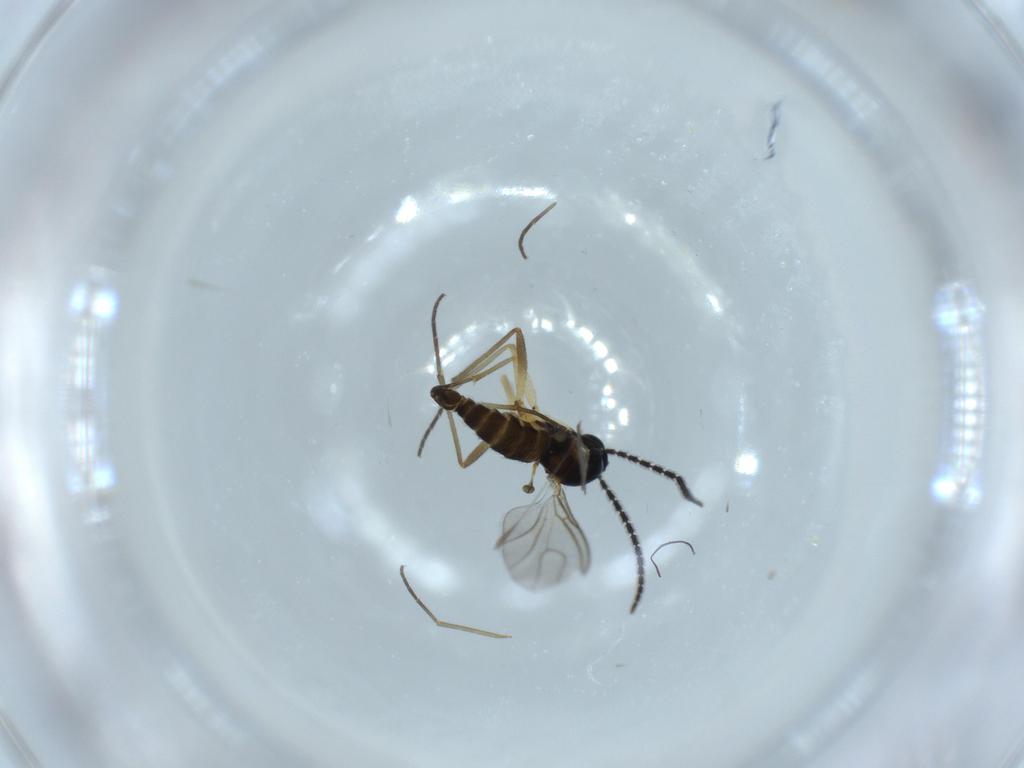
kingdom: Animalia
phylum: Arthropoda
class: Insecta
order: Diptera
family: Sciaridae
